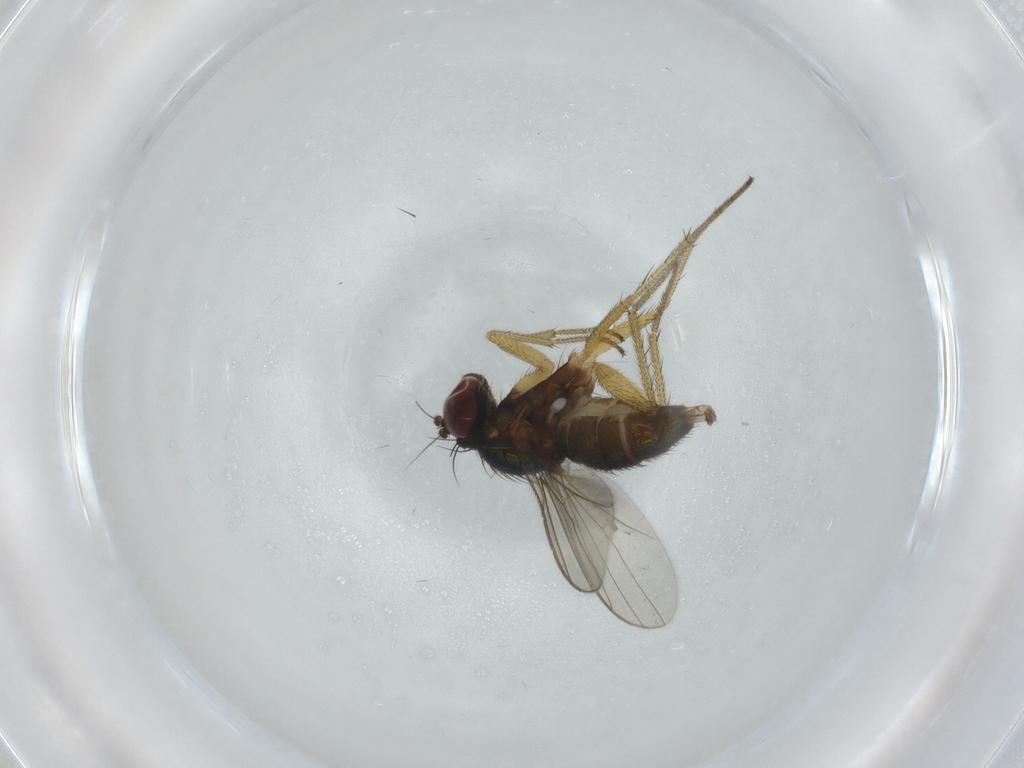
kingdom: Animalia
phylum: Arthropoda
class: Insecta
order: Diptera
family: Dolichopodidae
